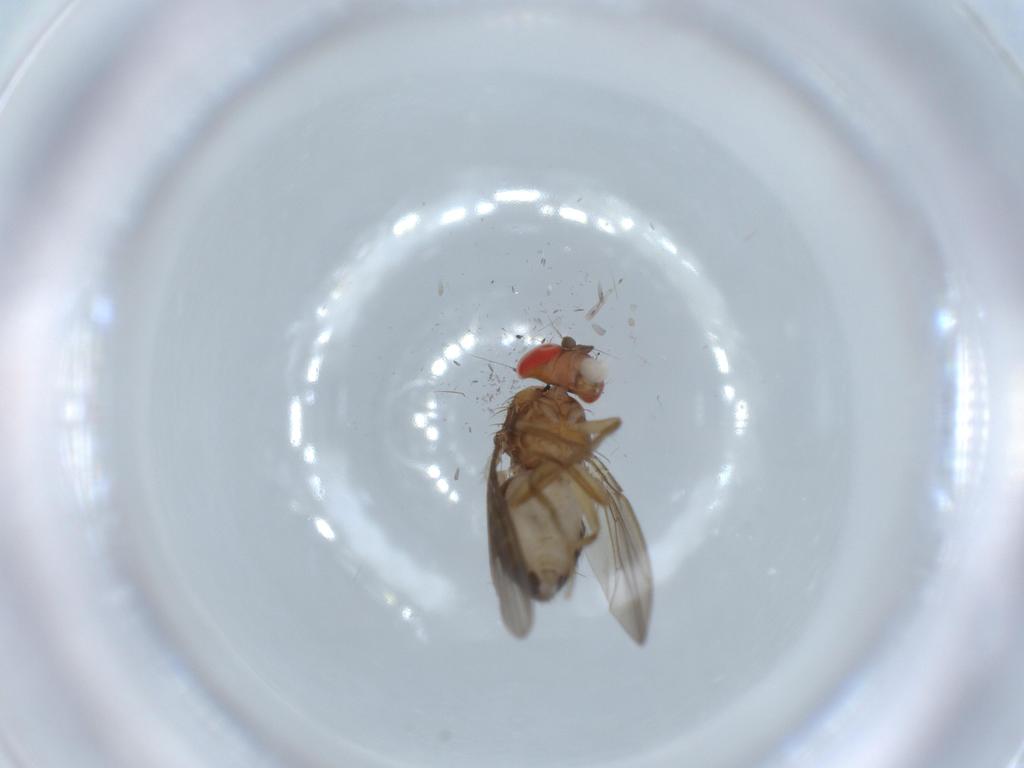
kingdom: Animalia
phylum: Arthropoda
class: Insecta
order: Diptera
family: Drosophilidae
